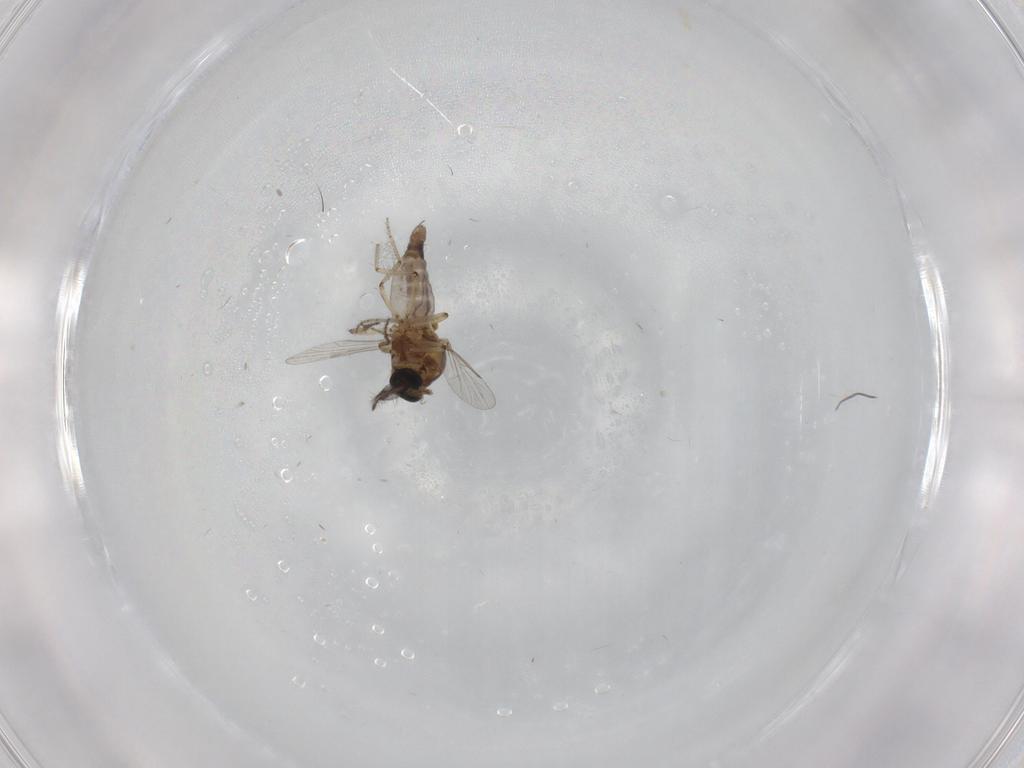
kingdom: Animalia
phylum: Arthropoda
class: Insecta
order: Diptera
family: Ceratopogonidae
